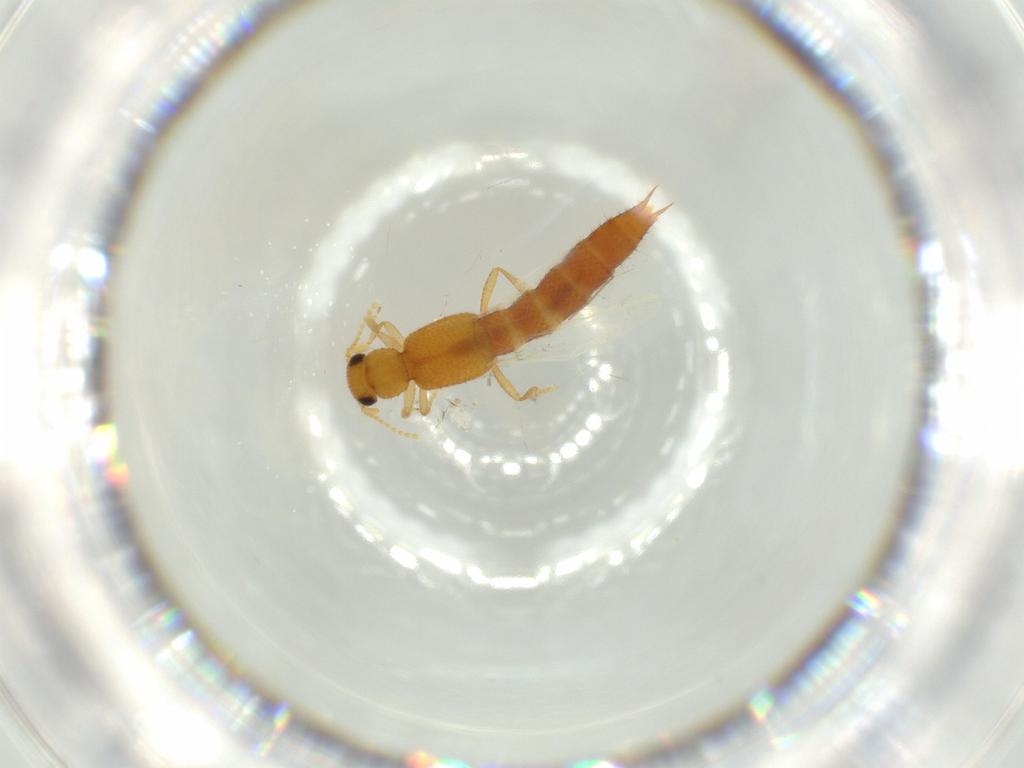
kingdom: Animalia
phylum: Arthropoda
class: Insecta
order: Coleoptera
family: Staphylinidae
